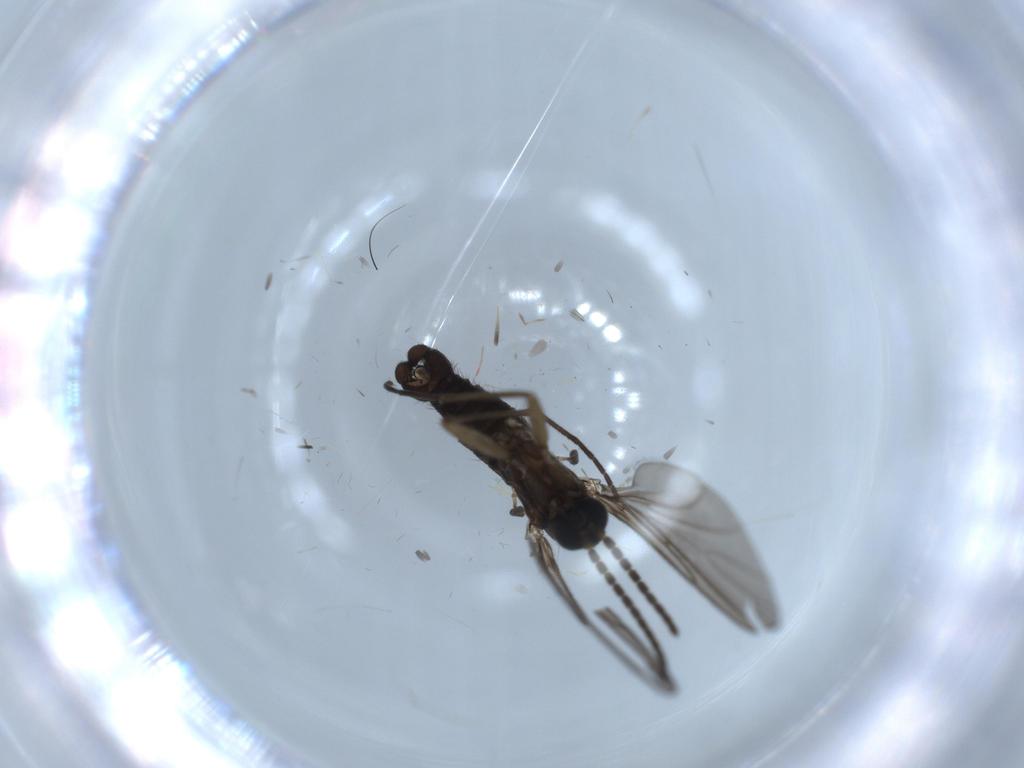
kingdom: Animalia
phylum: Arthropoda
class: Insecta
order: Diptera
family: Sciaridae
